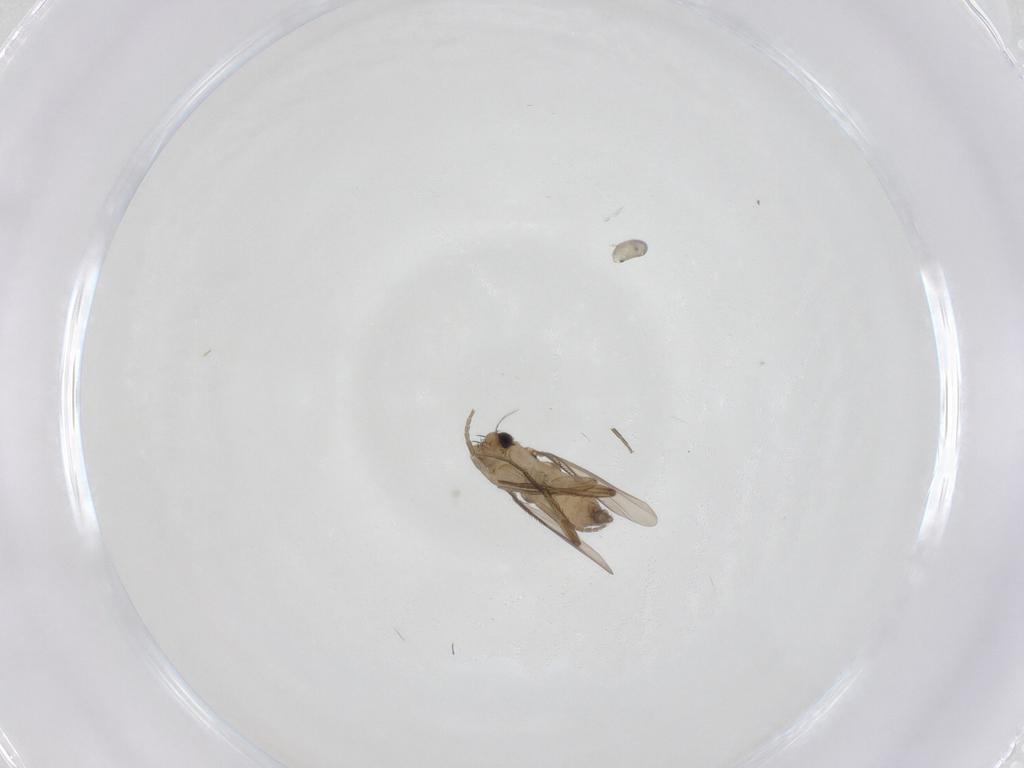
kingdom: Animalia
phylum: Arthropoda
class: Insecta
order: Diptera
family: Phoridae
